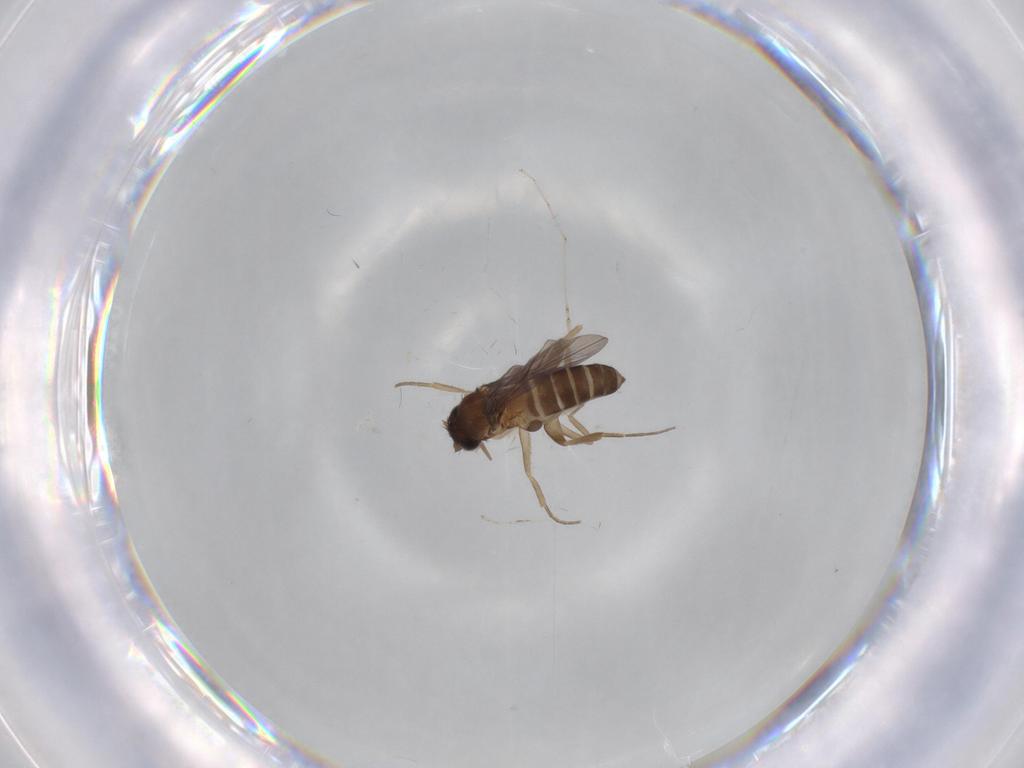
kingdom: Animalia
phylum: Arthropoda
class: Insecta
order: Diptera
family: Phoridae
